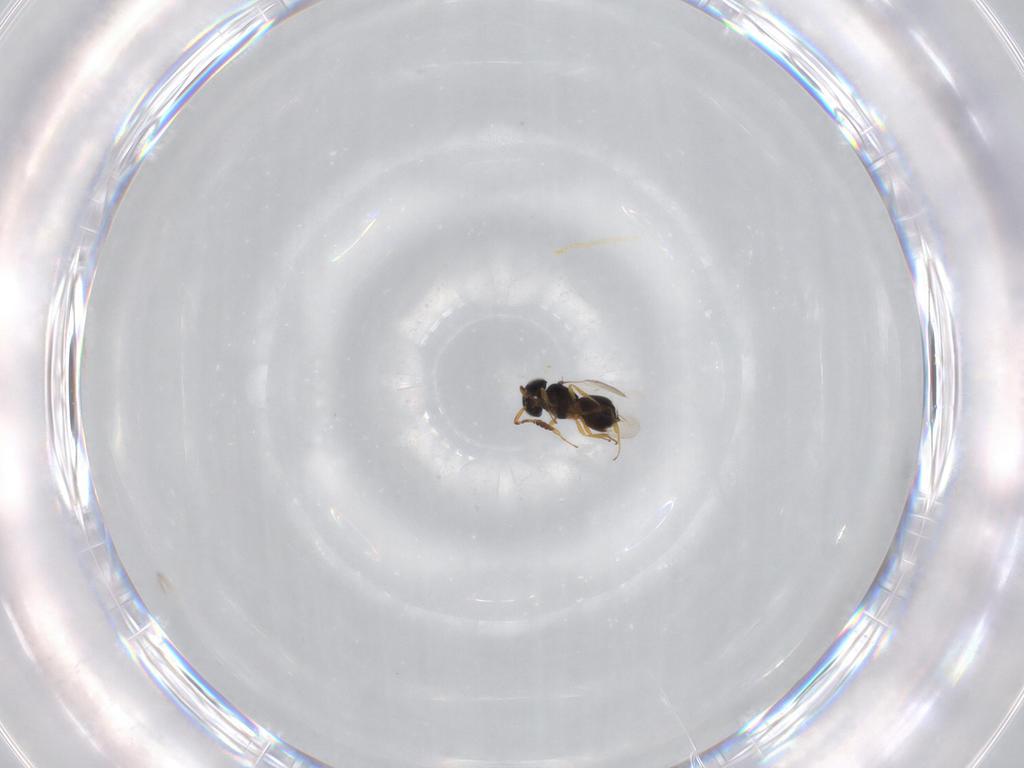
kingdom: Animalia
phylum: Arthropoda
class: Insecta
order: Hymenoptera
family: Scelionidae
